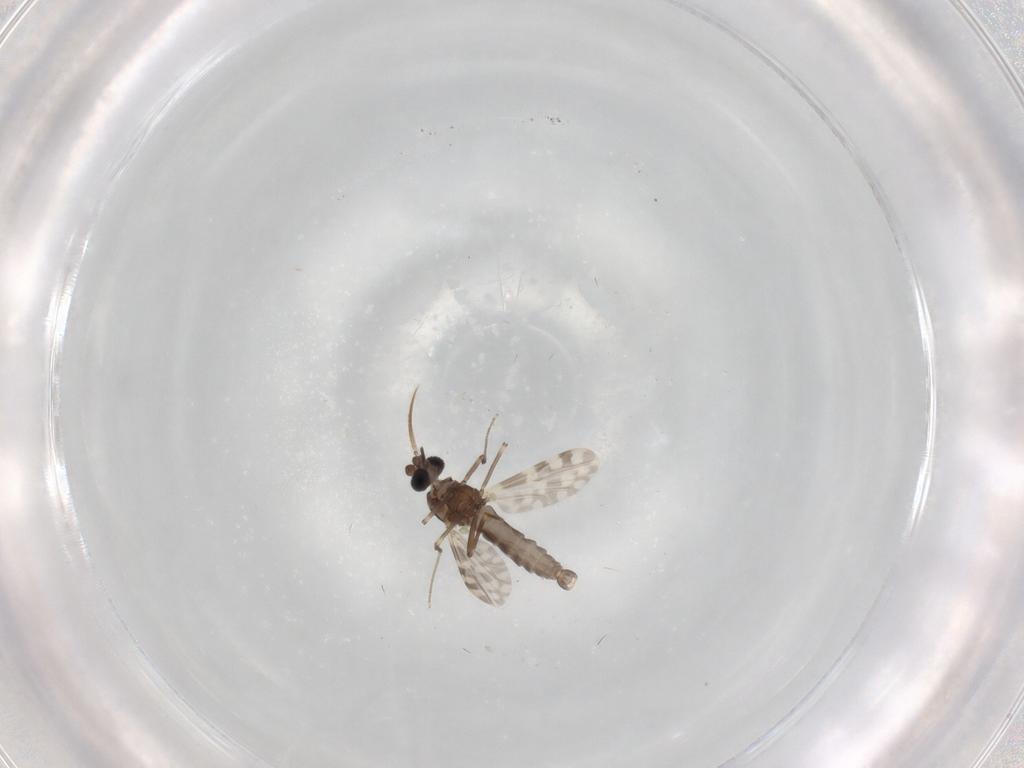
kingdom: Animalia
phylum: Arthropoda
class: Insecta
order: Diptera
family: Ceratopogonidae
